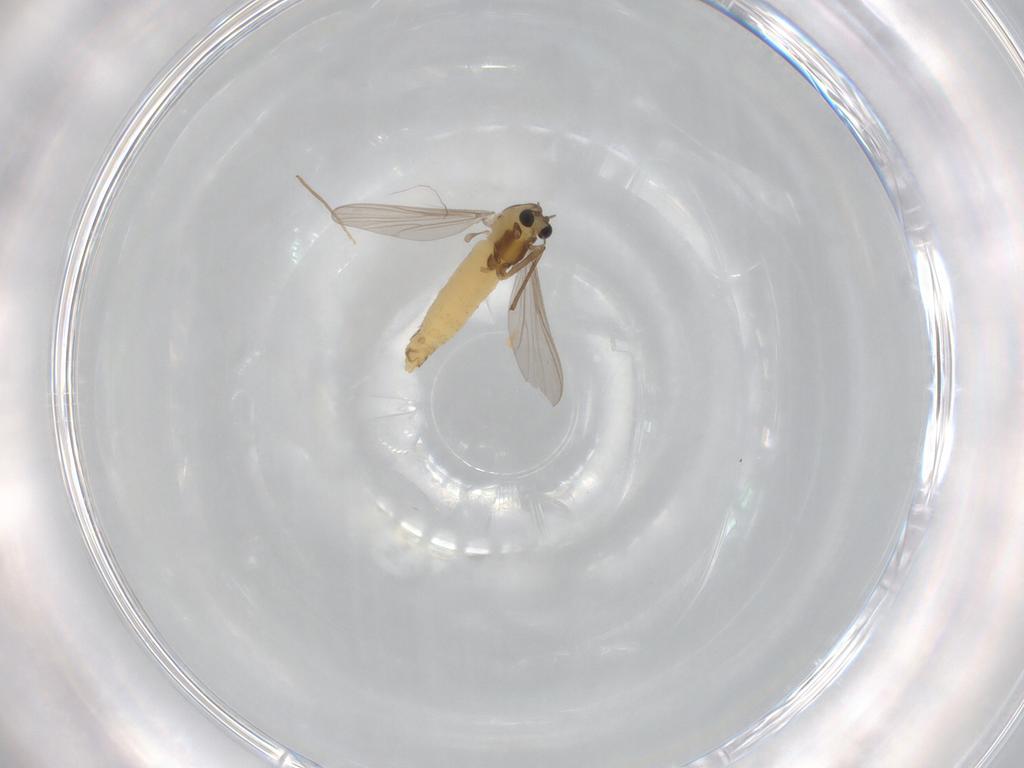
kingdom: Animalia
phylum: Arthropoda
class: Insecta
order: Diptera
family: Chironomidae
